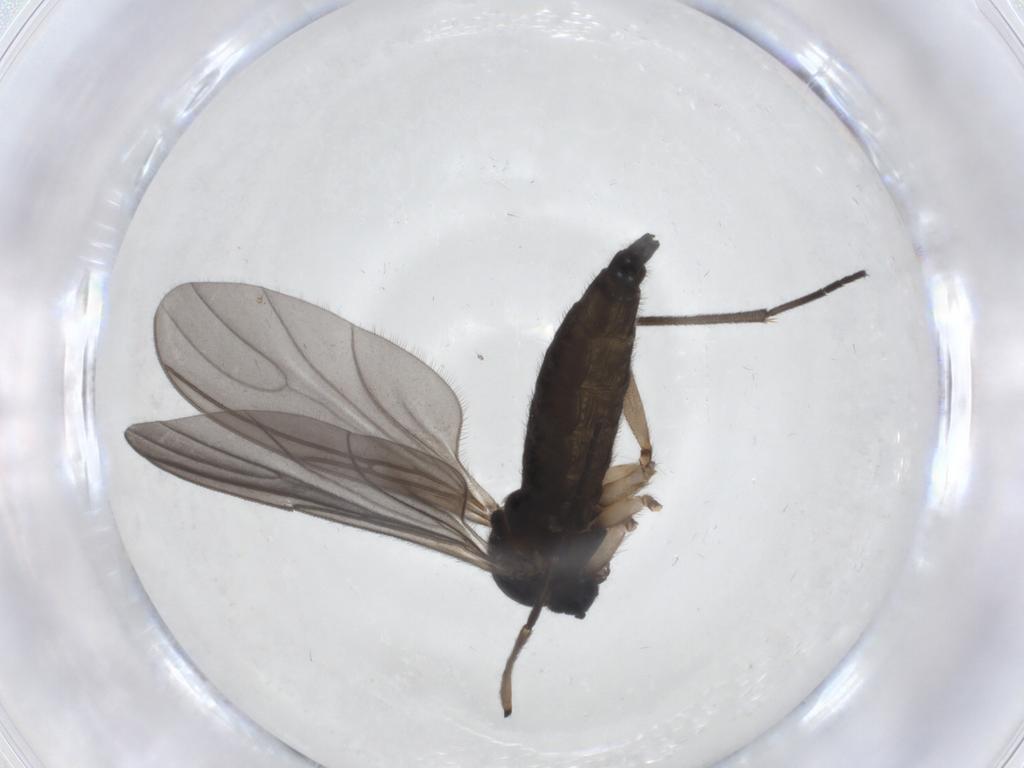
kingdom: Animalia
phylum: Arthropoda
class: Insecta
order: Diptera
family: Sciaridae
